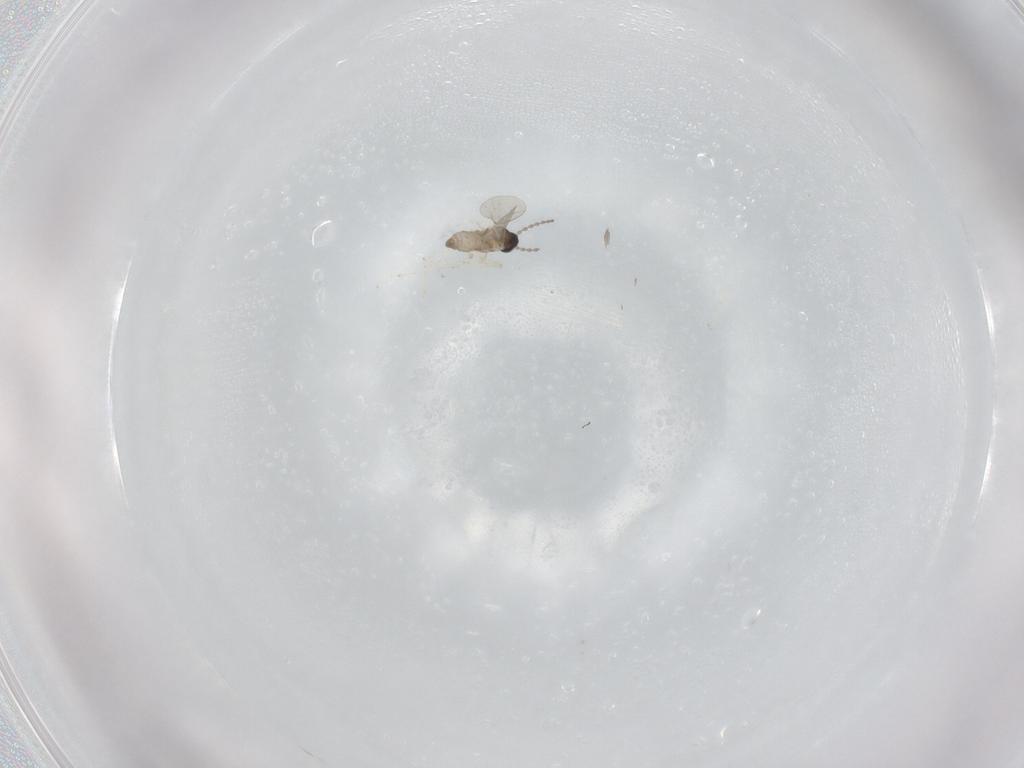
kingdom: Animalia
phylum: Arthropoda
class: Insecta
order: Diptera
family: Cecidomyiidae
